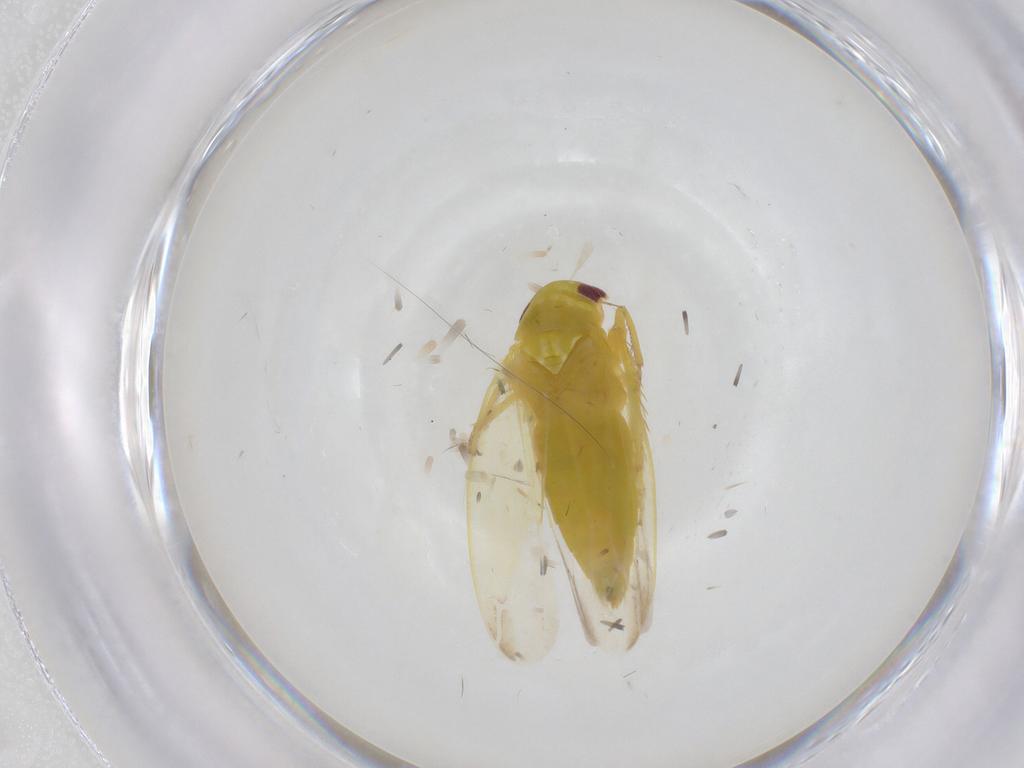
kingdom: Animalia
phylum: Arthropoda
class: Insecta
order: Hemiptera
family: Cicadellidae
